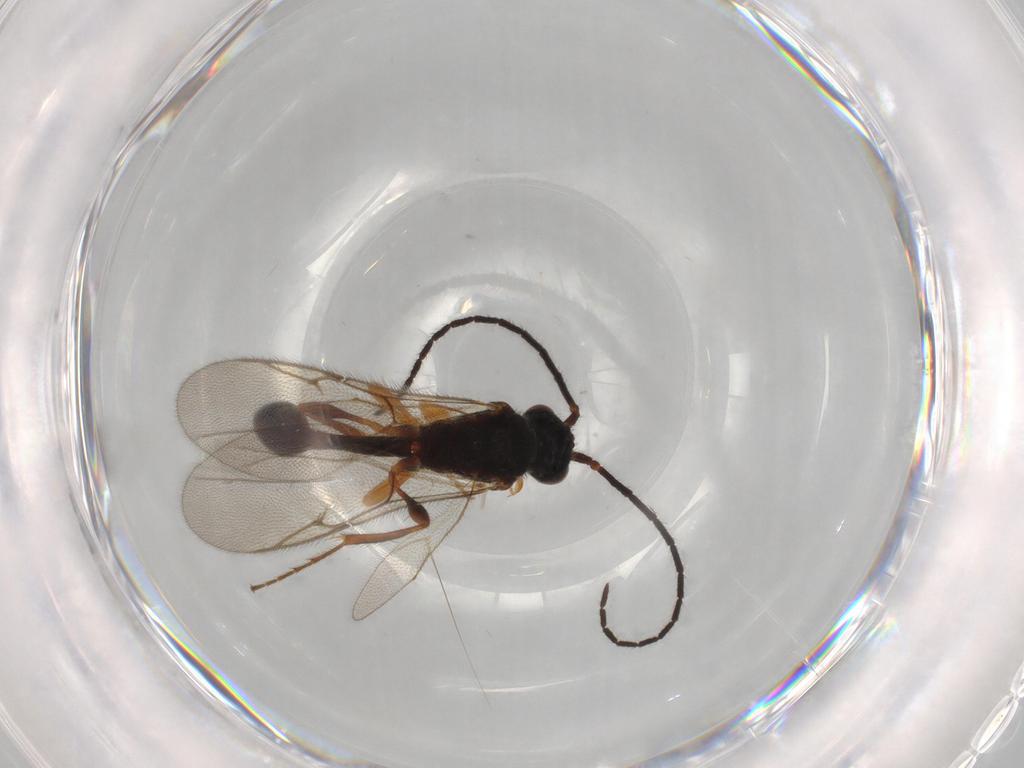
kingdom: Animalia
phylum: Arthropoda
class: Insecta
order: Hymenoptera
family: Diapriidae
